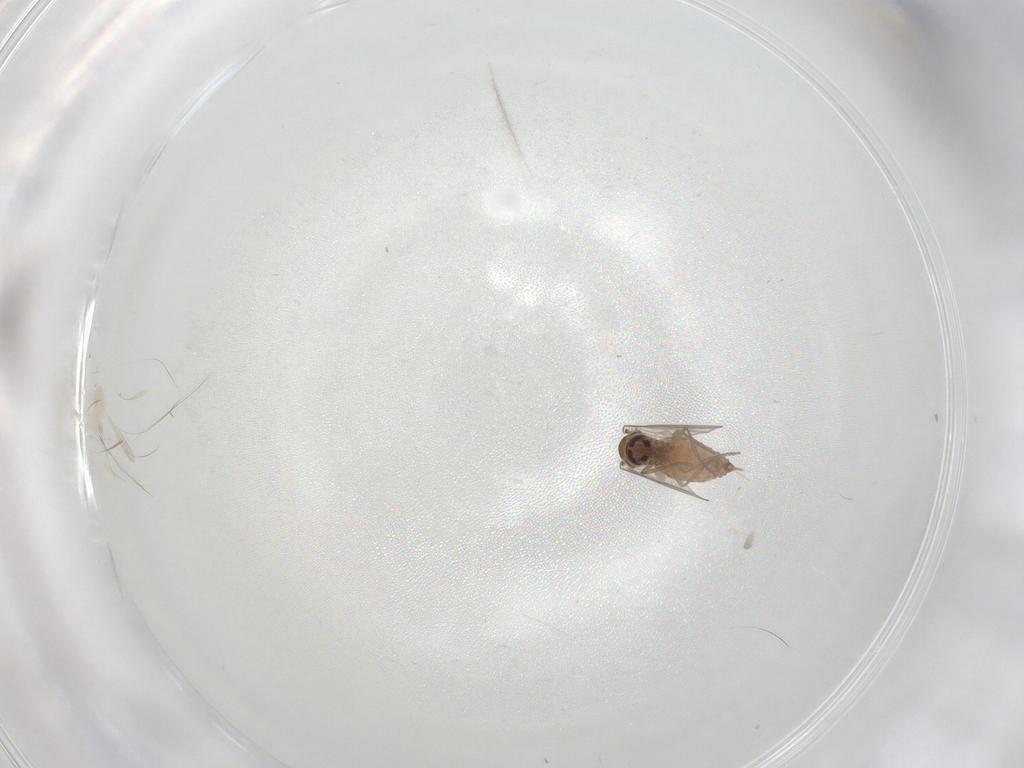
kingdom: Animalia
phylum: Arthropoda
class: Insecta
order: Diptera
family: Psychodidae
